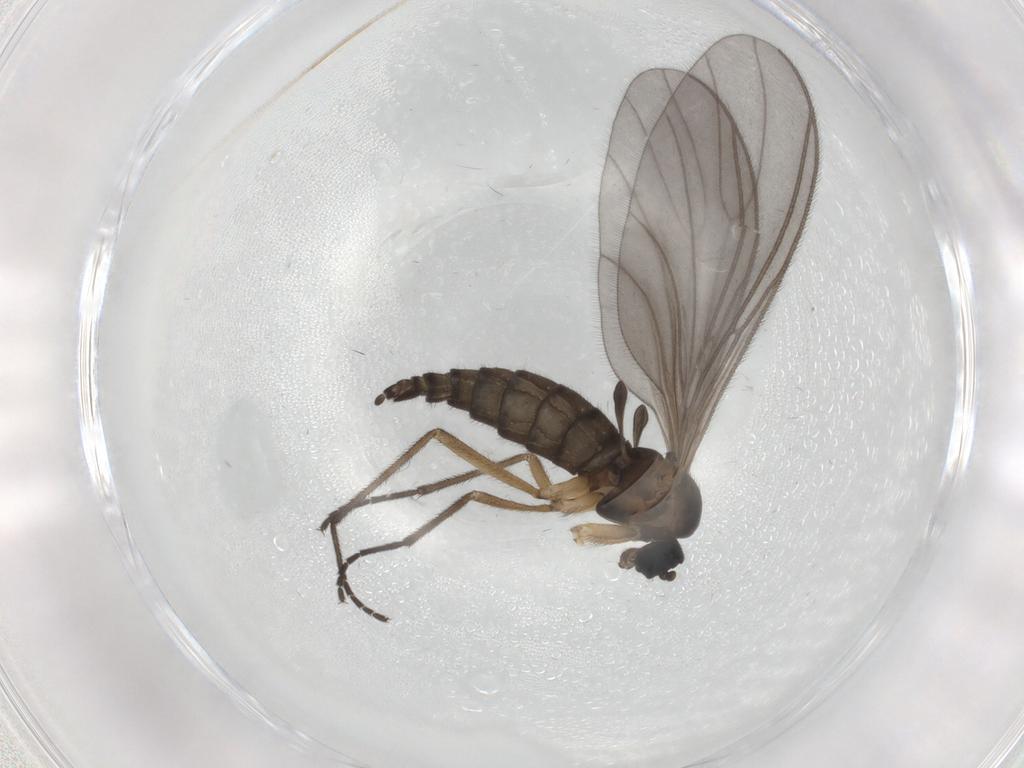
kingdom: Animalia
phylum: Arthropoda
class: Insecta
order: Diptera
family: Sciaridae
